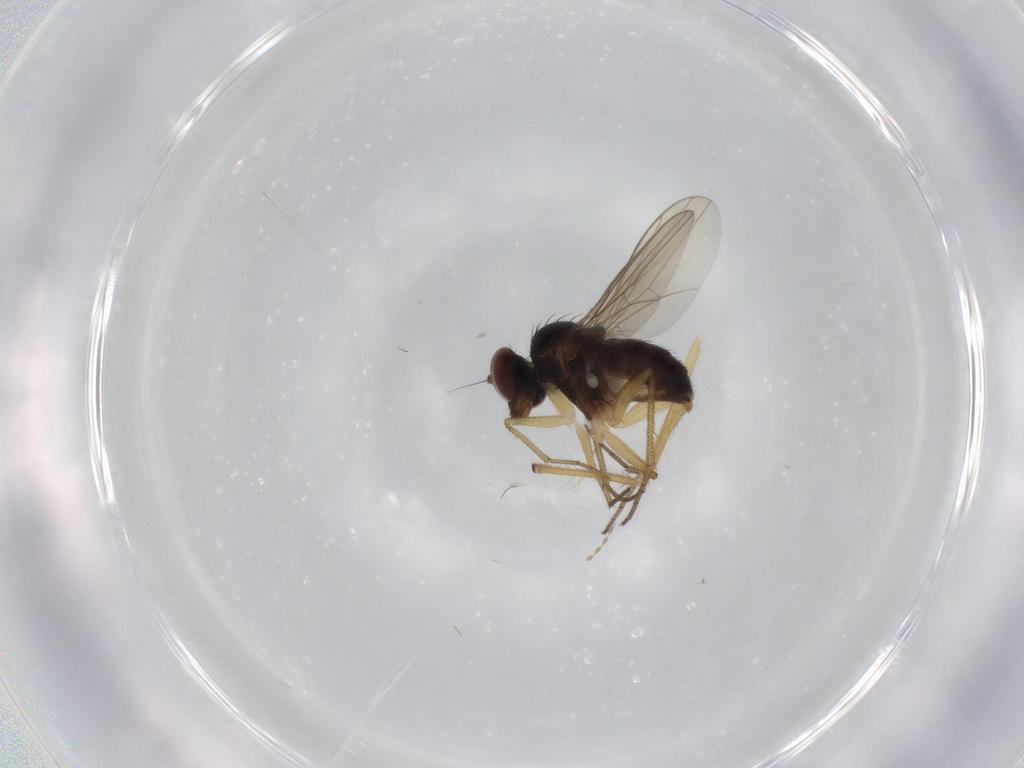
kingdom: Animalia
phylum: Arthropoda
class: Insecta
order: Diptera
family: Dolichopodidae
